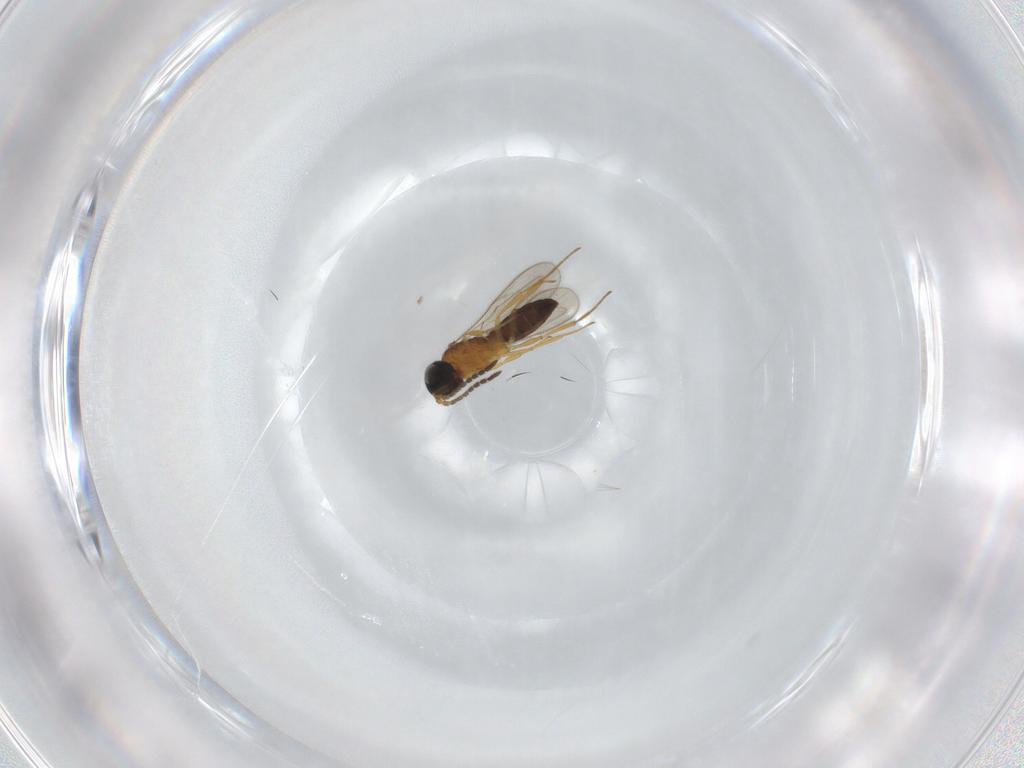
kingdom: Animalia
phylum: Arthropoda
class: Insecta
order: Hymenoptera
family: Scelionidae
